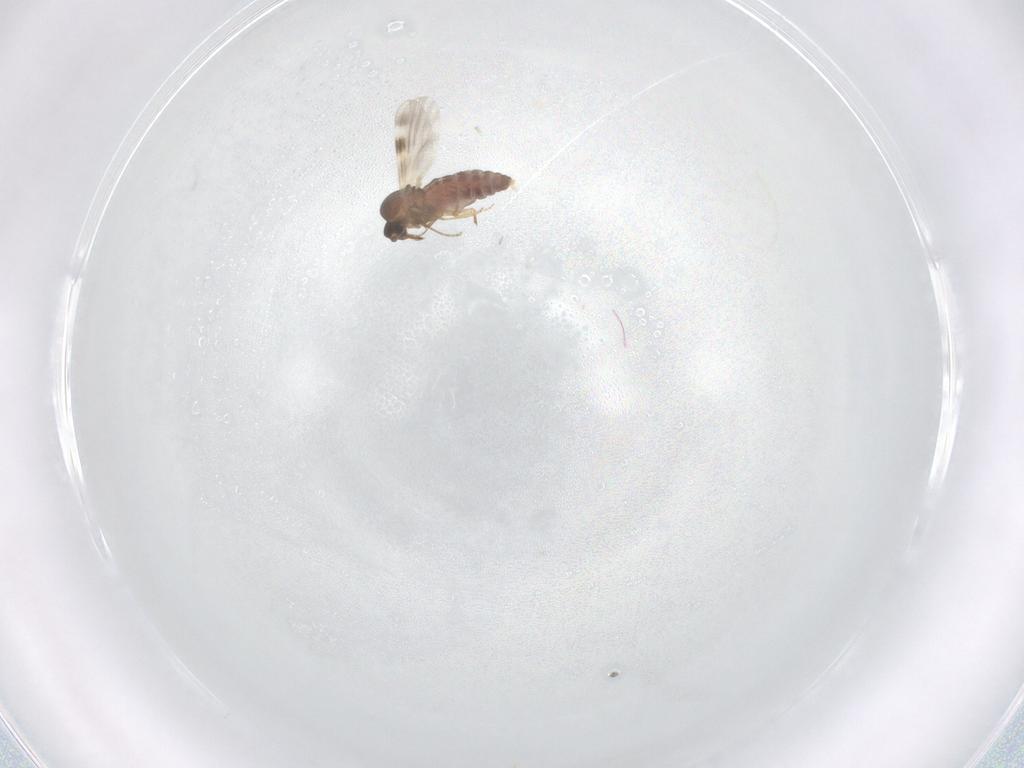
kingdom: Animalia
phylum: Arthropoda
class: Insecta
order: Diptera
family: Ceratopogonidae
